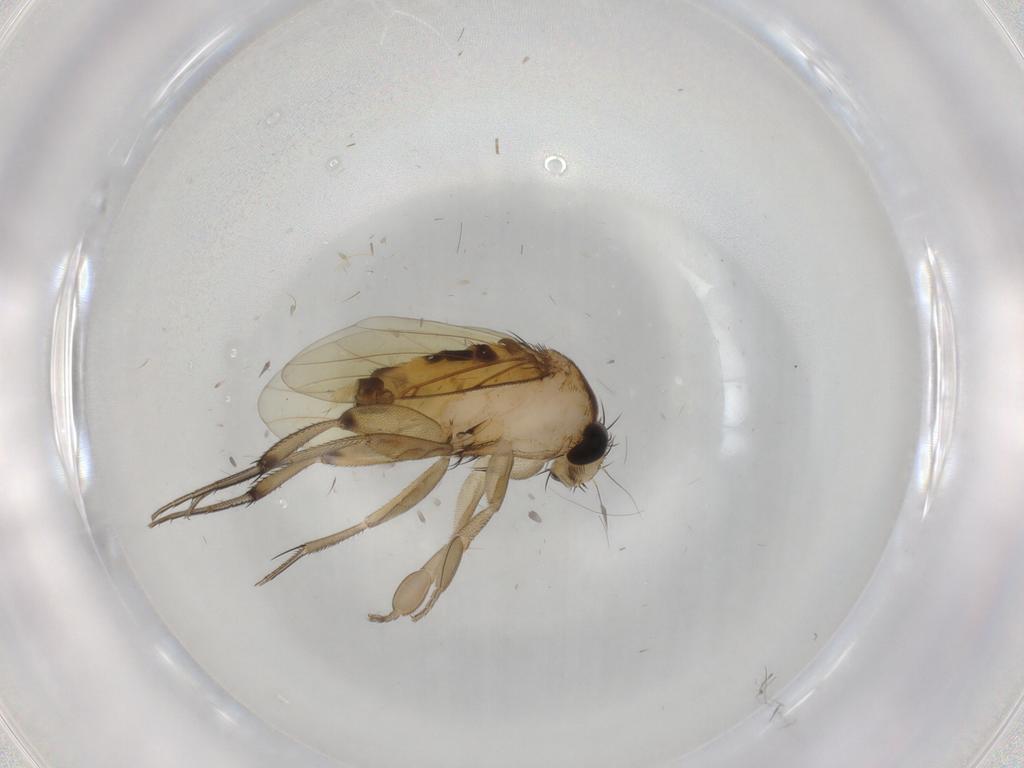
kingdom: Animalia
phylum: Arthropoda
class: Insecta
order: Diptera
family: Phoridae
